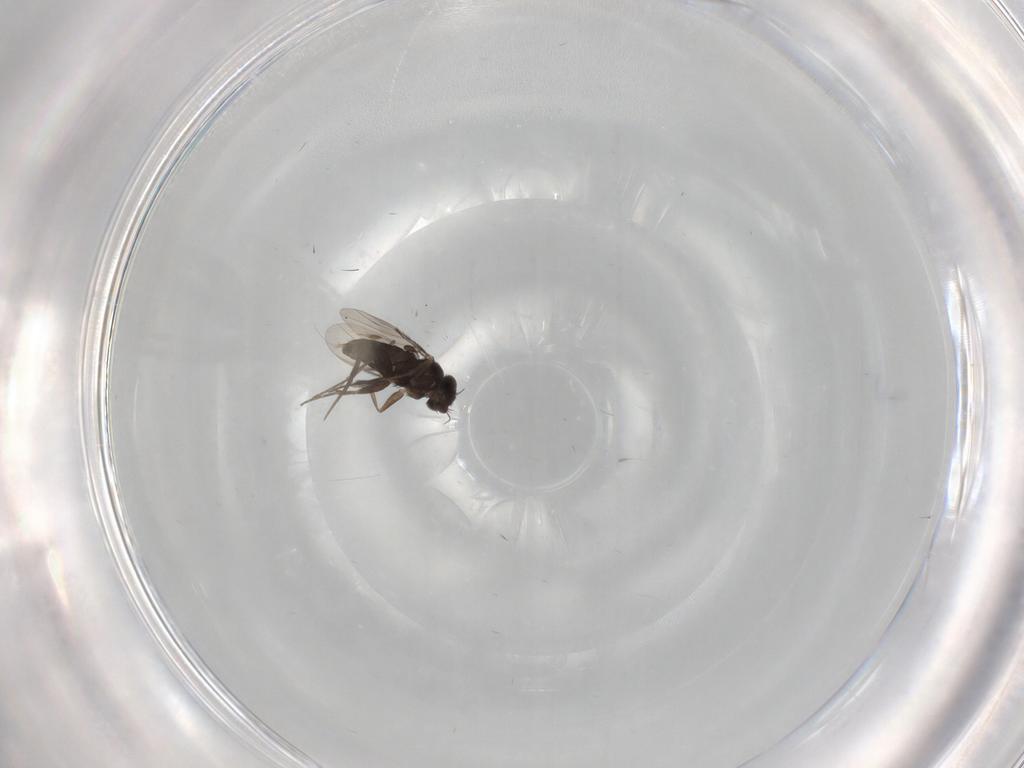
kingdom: Animalia
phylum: Arthropoda
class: Insecta
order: Diptera
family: Phoridae
